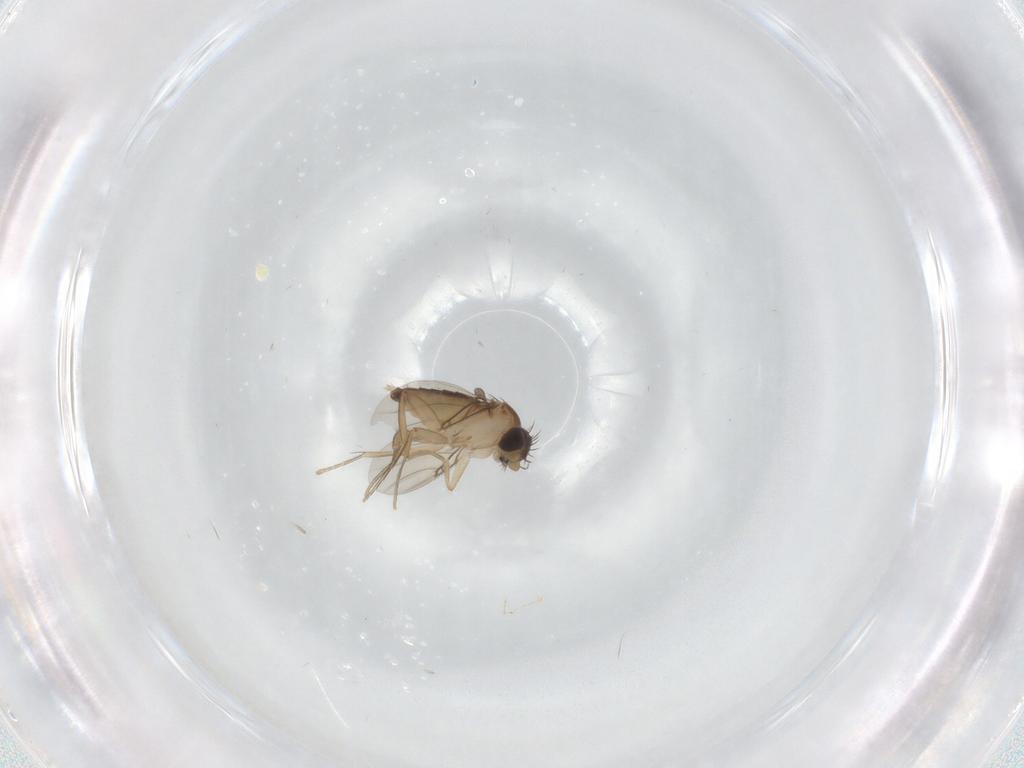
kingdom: Animalia
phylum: Arthropoda
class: Insecta
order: Diptera
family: Phoridae
